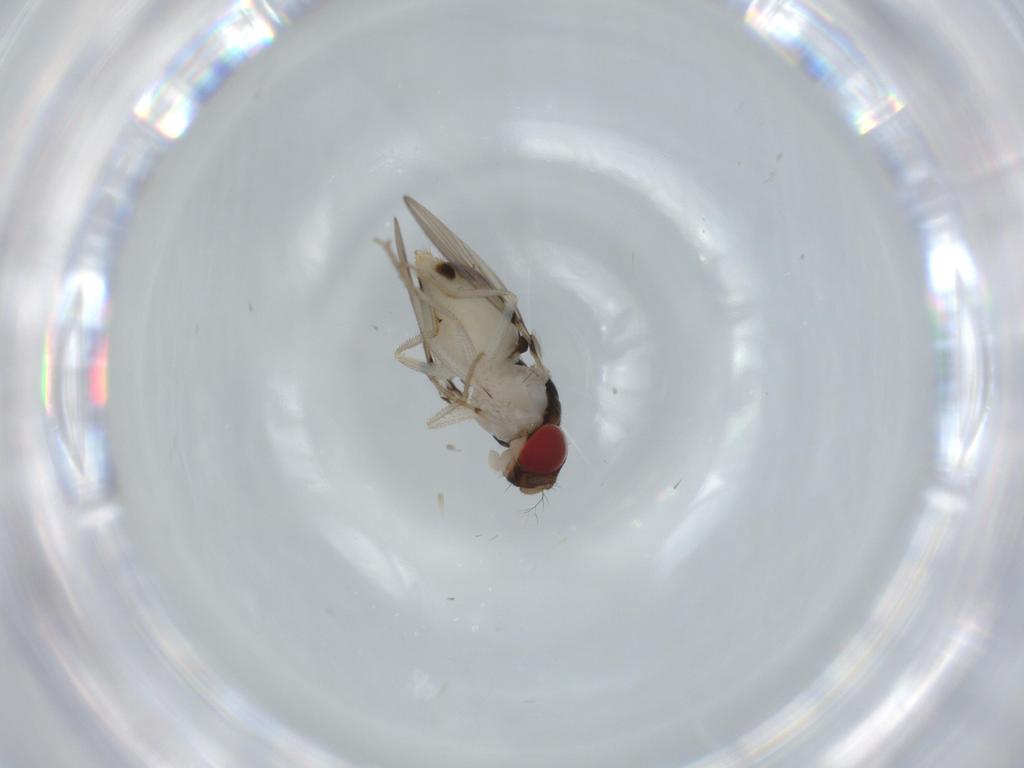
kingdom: Animalia
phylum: Arthropoda
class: Insecta
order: Diptera
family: Drosophilidae
